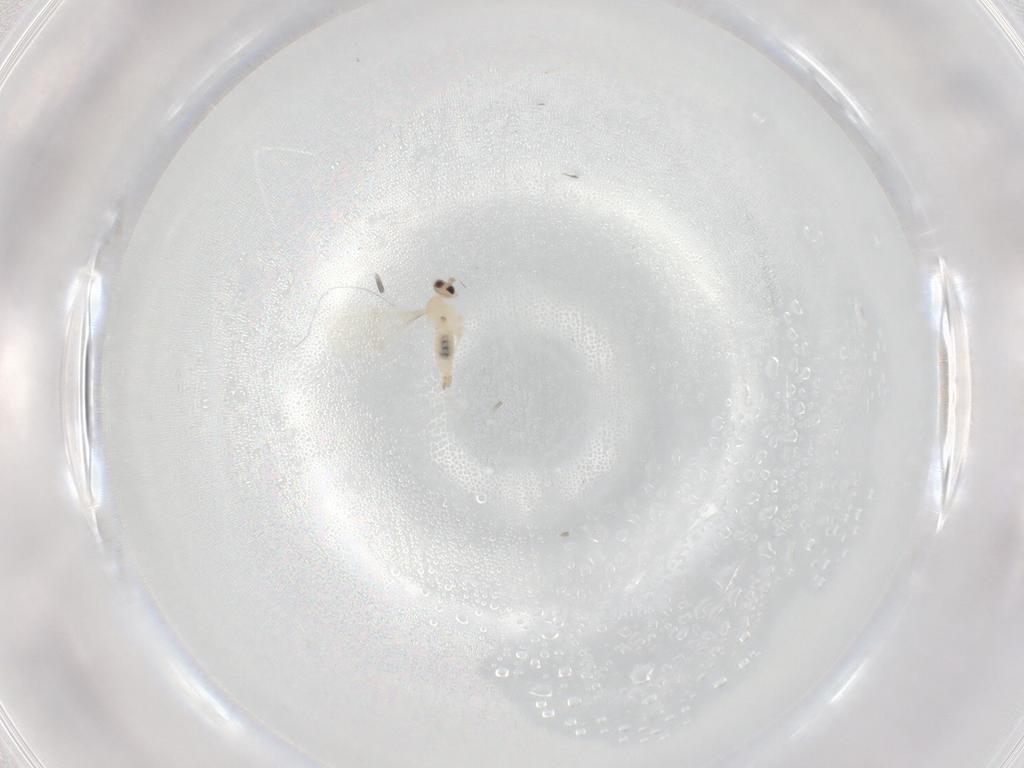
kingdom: Animalia
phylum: Arthropoda
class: Insecta
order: Diptera
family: Cecidomyiidae
